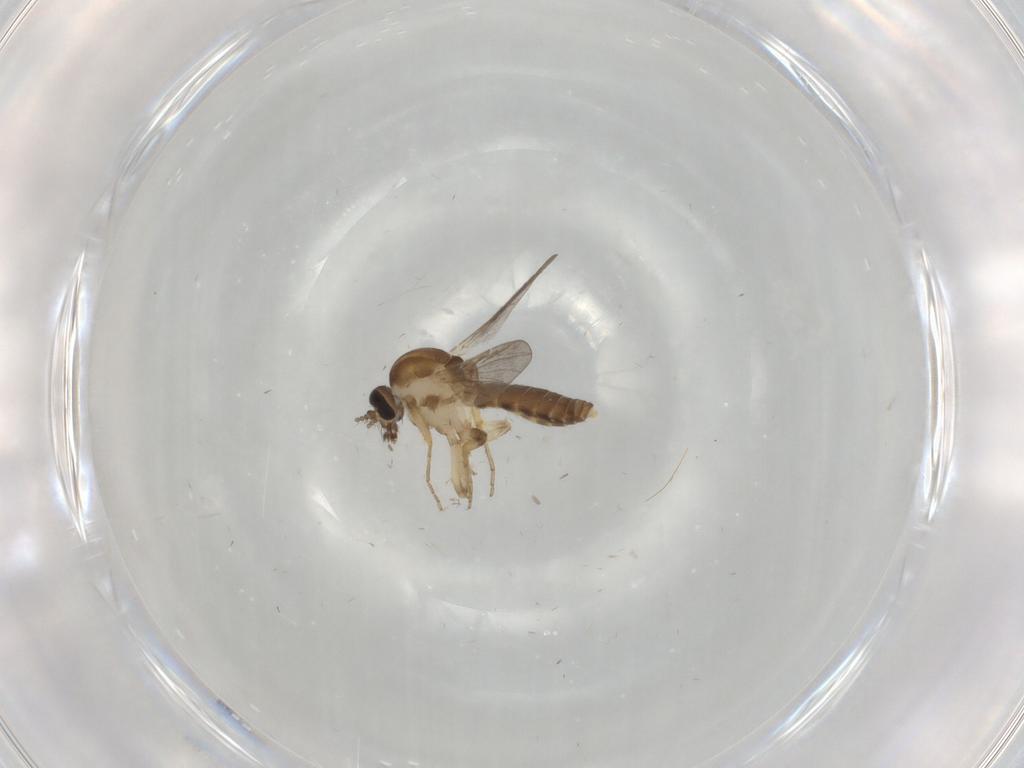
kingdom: Animalia
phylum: Arthropoda
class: Insecta
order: Diptera
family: Ceratopogonidae
